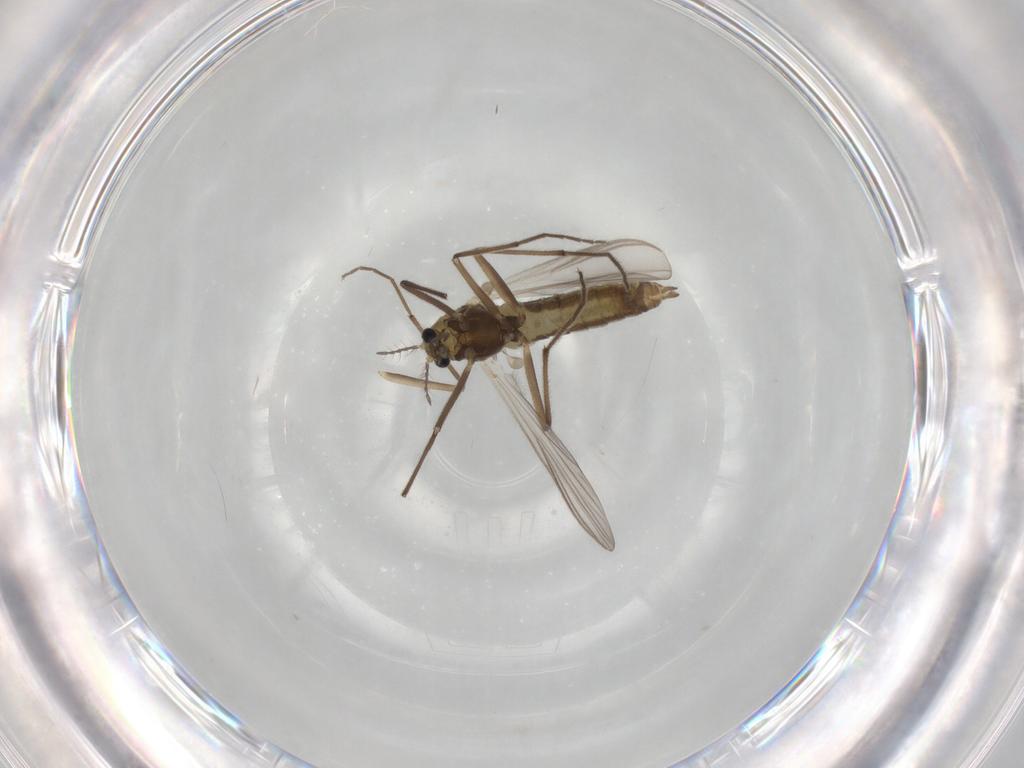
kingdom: Animalia
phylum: Arthropoda
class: Insecta
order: Diptera
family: Chironomidae
